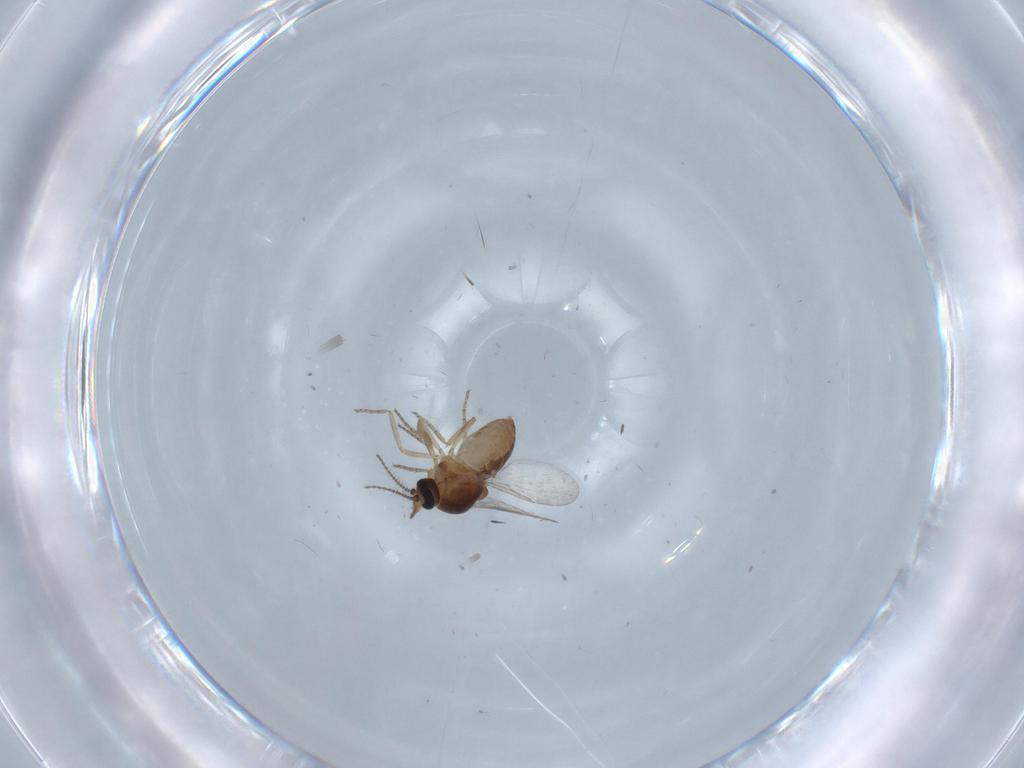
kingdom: Animalia
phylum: Arthropoda
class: Insecta
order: Diptera
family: Ceratopogonidae
